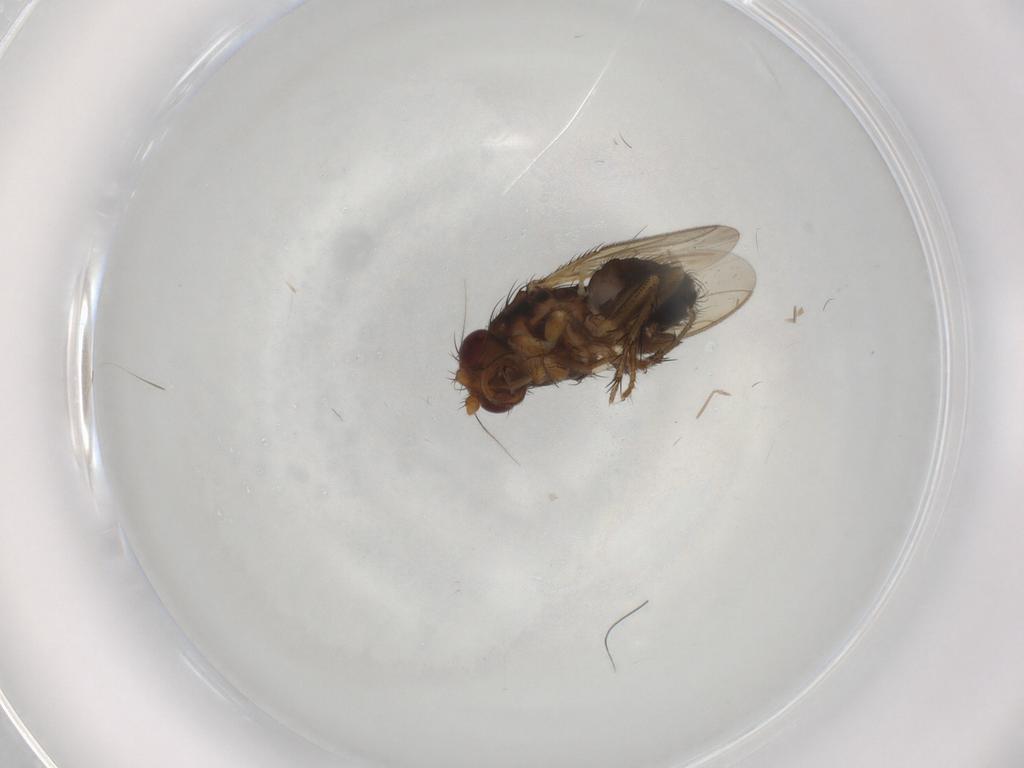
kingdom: Animalia
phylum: Arthropoda
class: Insecta
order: Diptera
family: Sphaeroceridae
